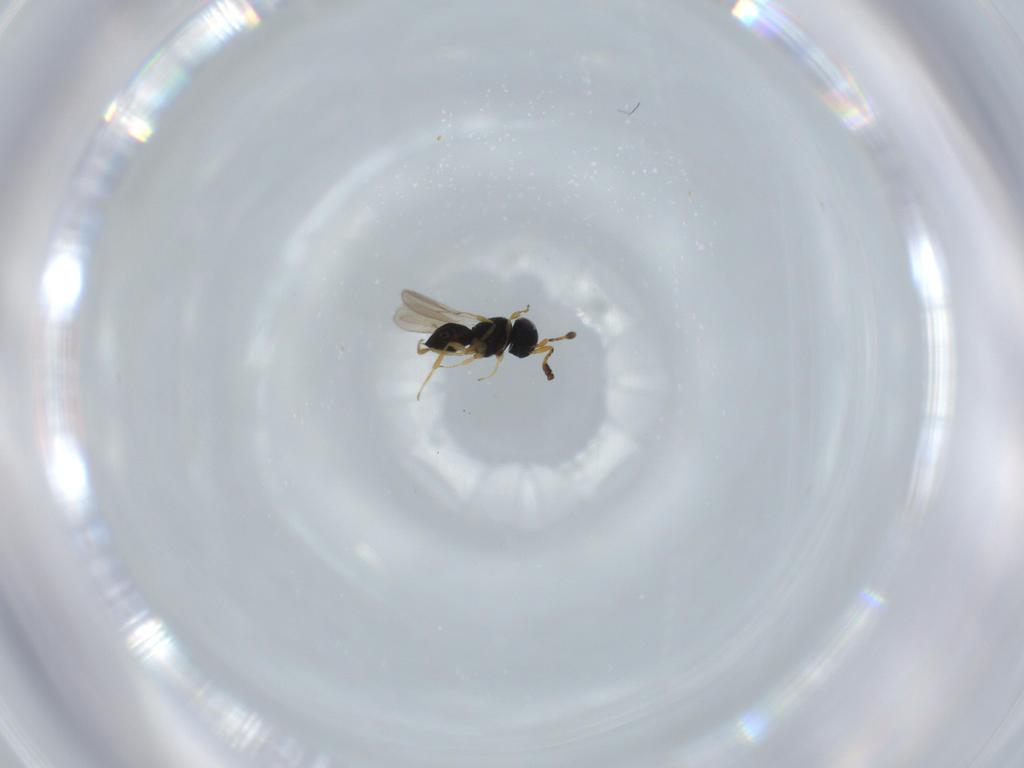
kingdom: Animalia
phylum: Arthropoda
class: Insecta
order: Hymenoptera
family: Scelionidae
